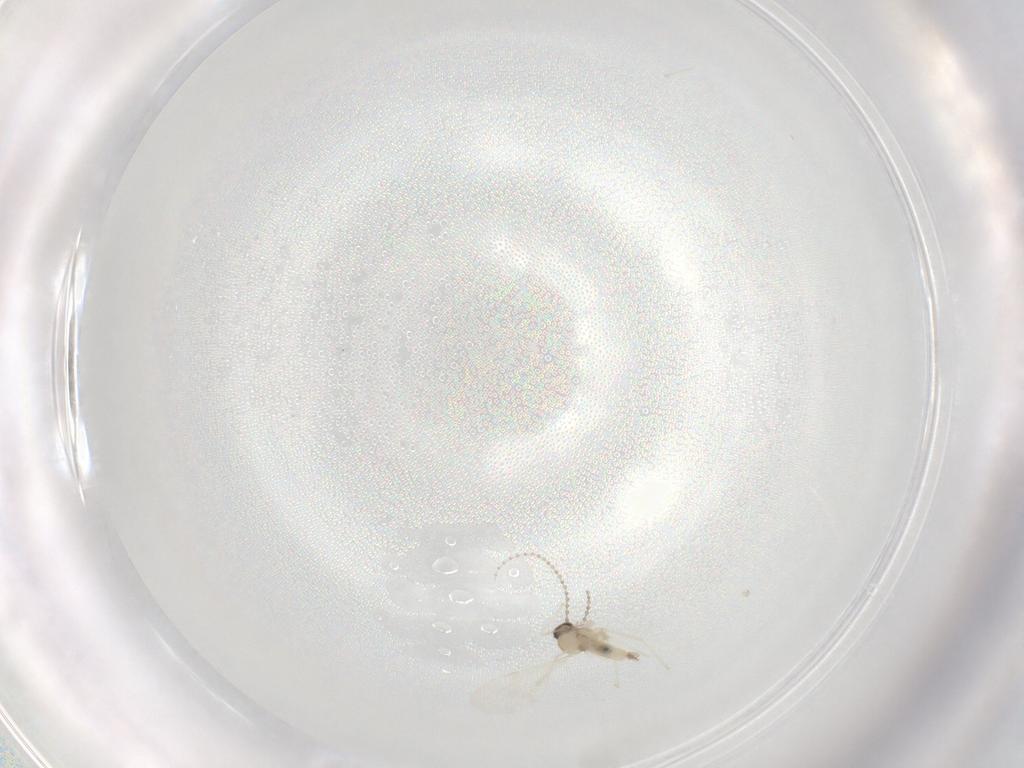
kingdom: Animalia
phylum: Arthropoda
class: Insecta
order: Diptera
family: Cecidomyiidae
